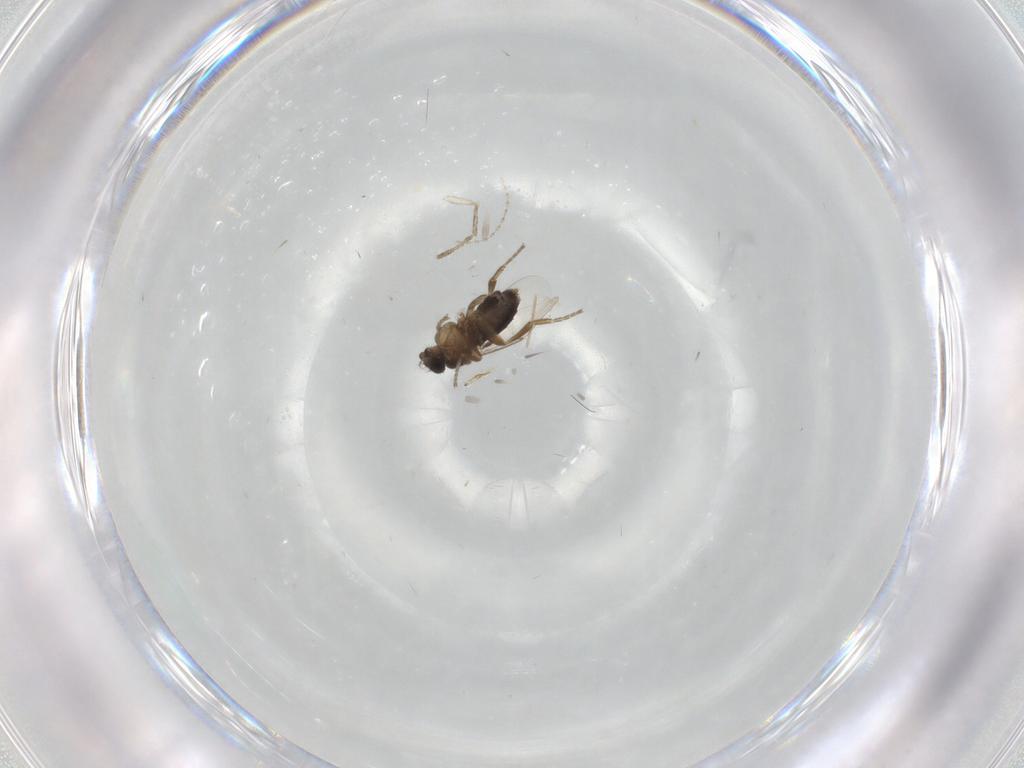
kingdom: Animalia
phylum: Arthropoda
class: Insecta
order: Diptera
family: Phoridae
